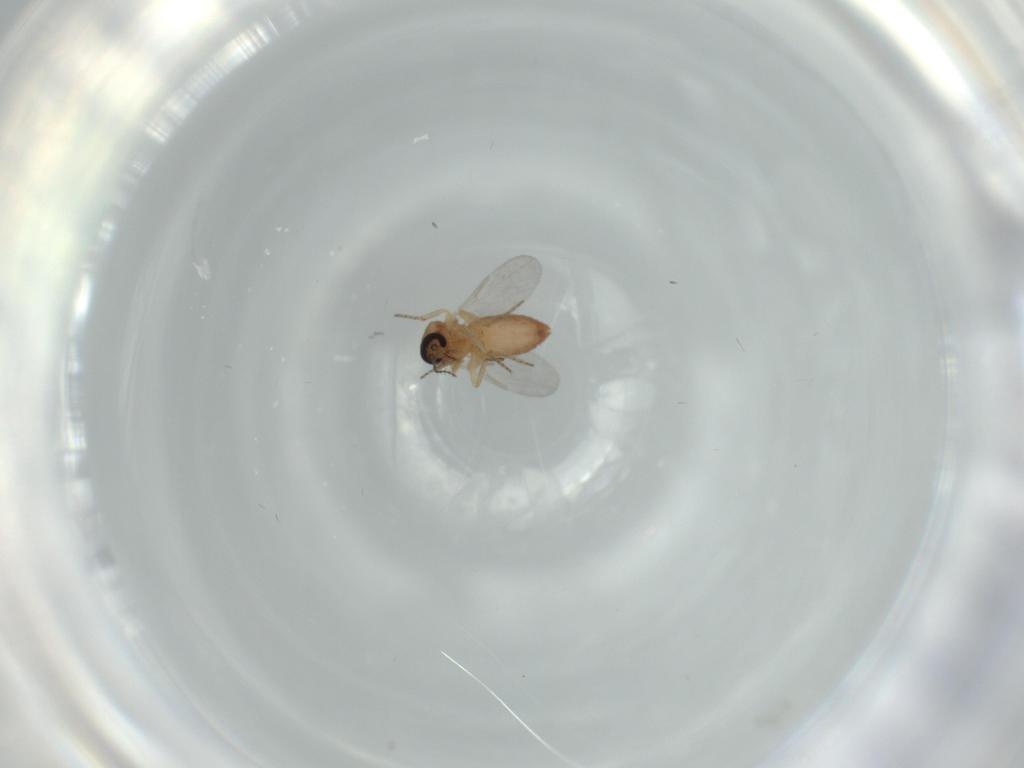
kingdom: Animalia
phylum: Arthropoda
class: Insecta
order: Diptera
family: Ceratopogonidae
